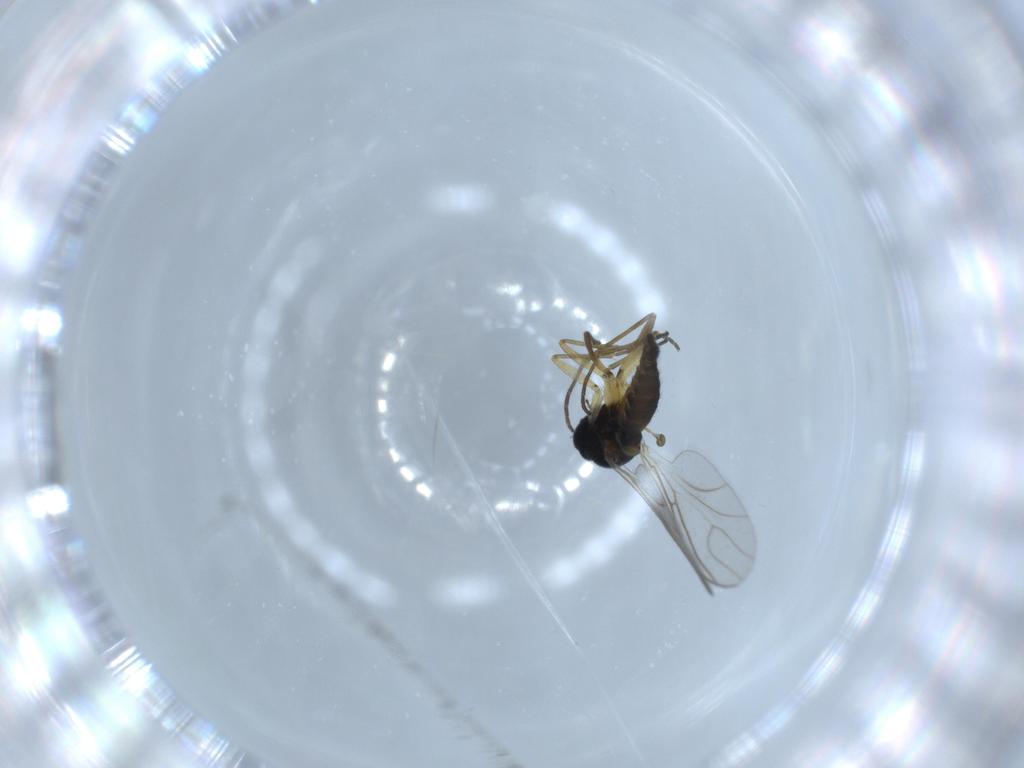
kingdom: Animalia
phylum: Arthropoda
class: Insecta
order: Diptera
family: Sciaridae
